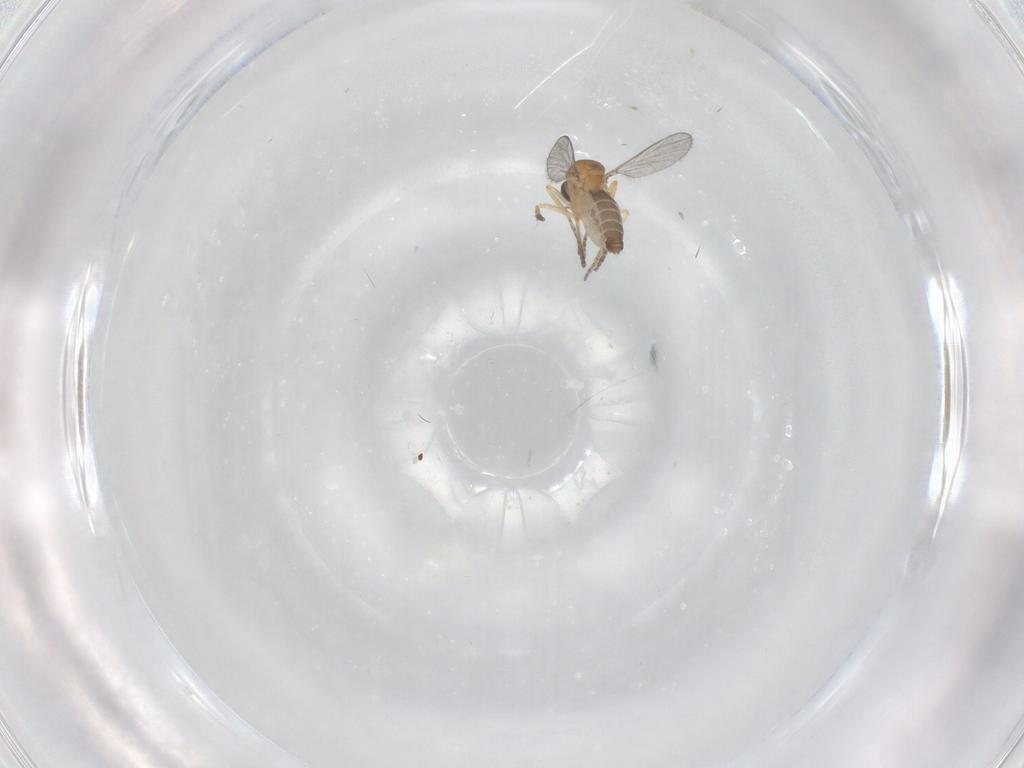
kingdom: Animalia
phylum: Arthropoda
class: Insecta
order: Diptera
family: Ceratopogonidae
